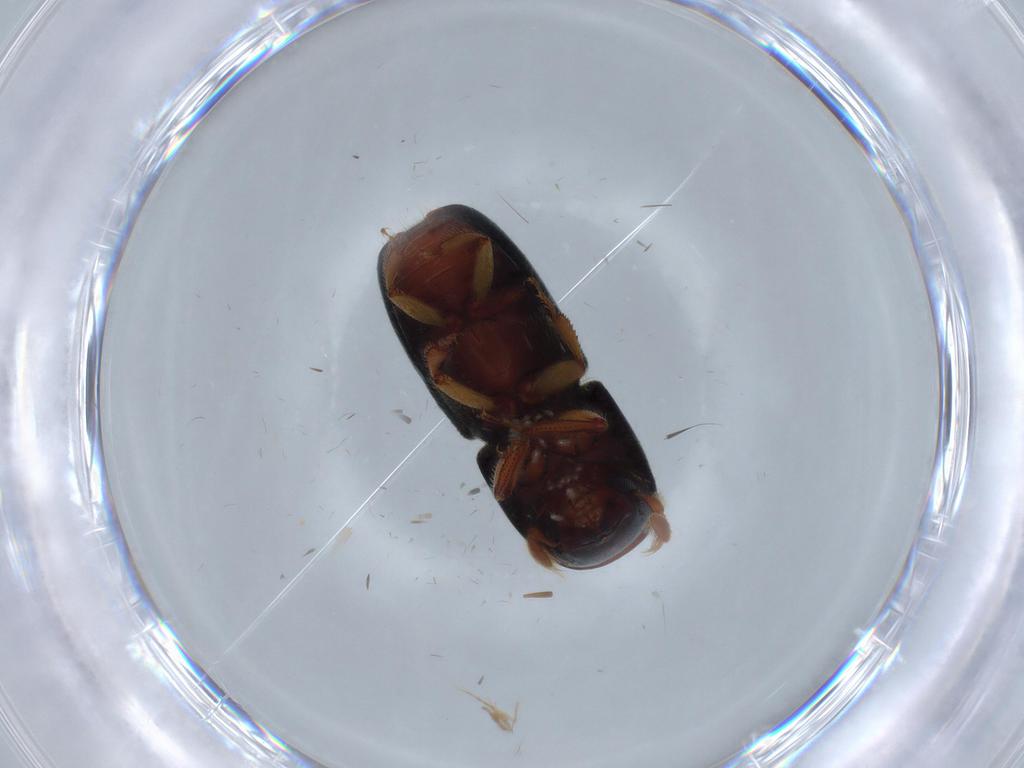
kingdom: Animalia
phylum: Arthropoda
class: Insecta
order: Coleoptera
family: Curculionidae
